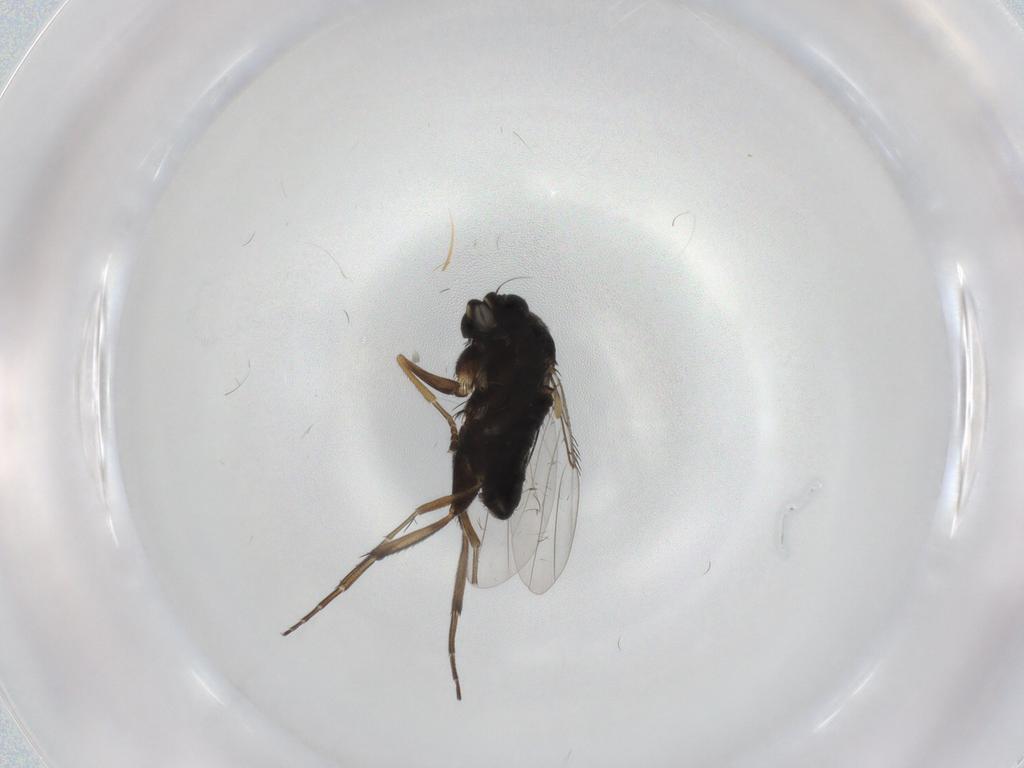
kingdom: Animalia
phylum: Arthropoda
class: Insecta
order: Diptera
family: Phoridae
